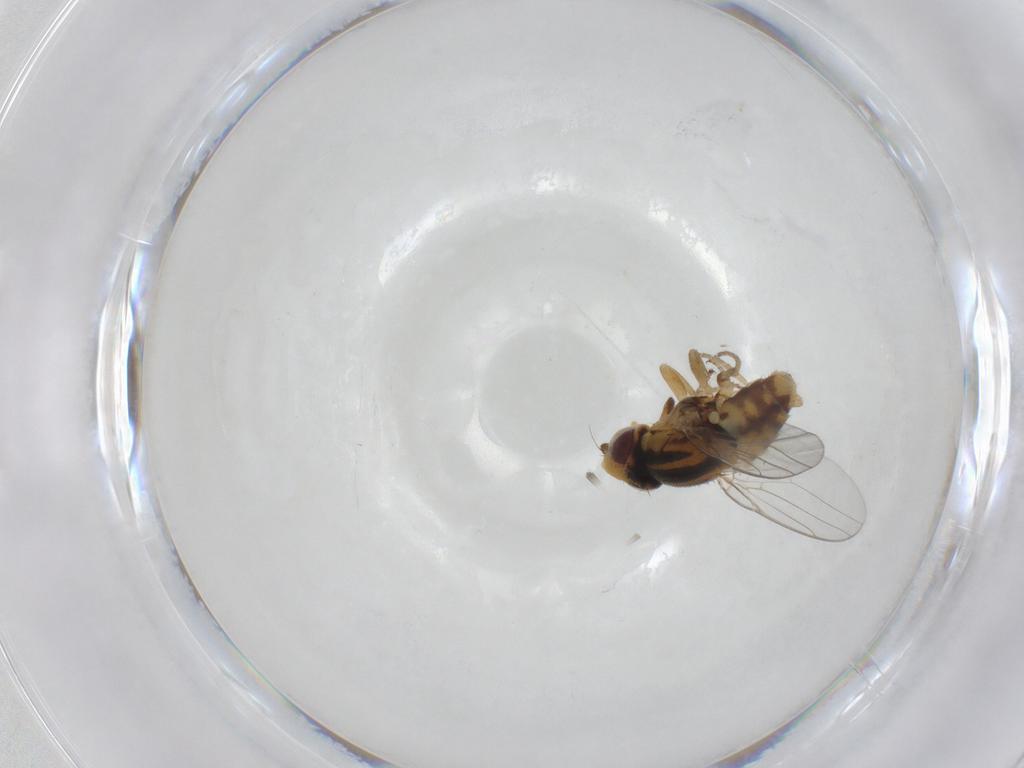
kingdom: Animalia
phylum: Arthropoda
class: Insecta
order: Diptera
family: Chloropidae
